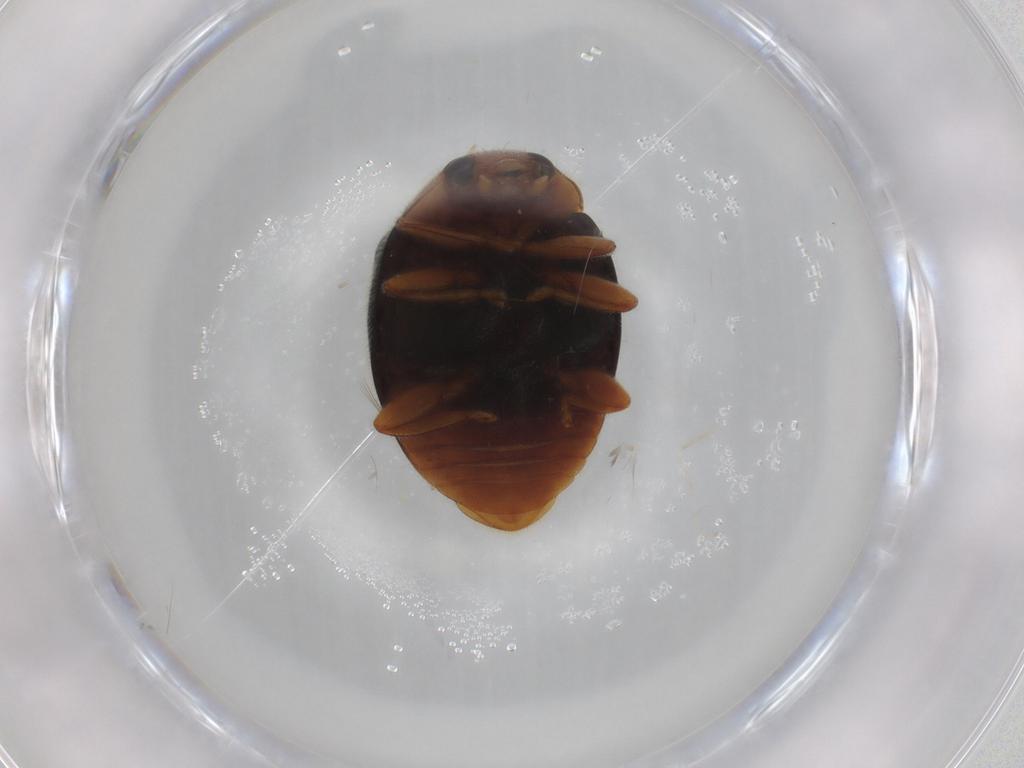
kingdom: Animalia
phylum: Arthropoda
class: Insecta
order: Coleoptera
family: Coccinellidae
